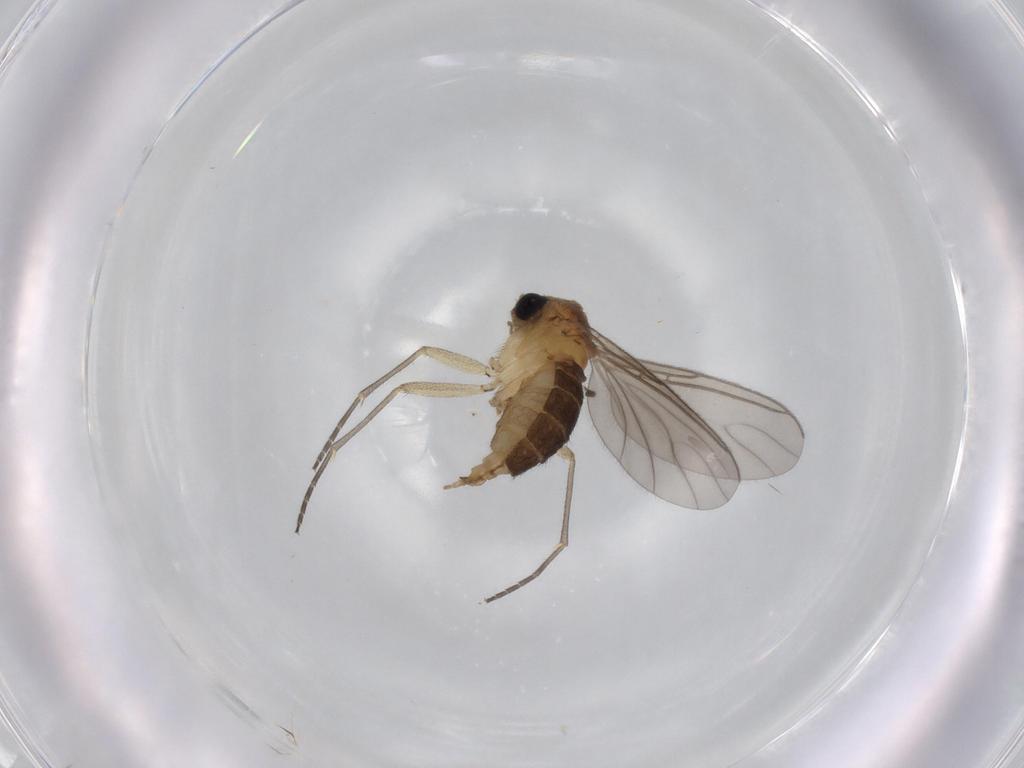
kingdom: Animalia
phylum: Arthropoda
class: Insecta
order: Diptera
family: Sciaridae
